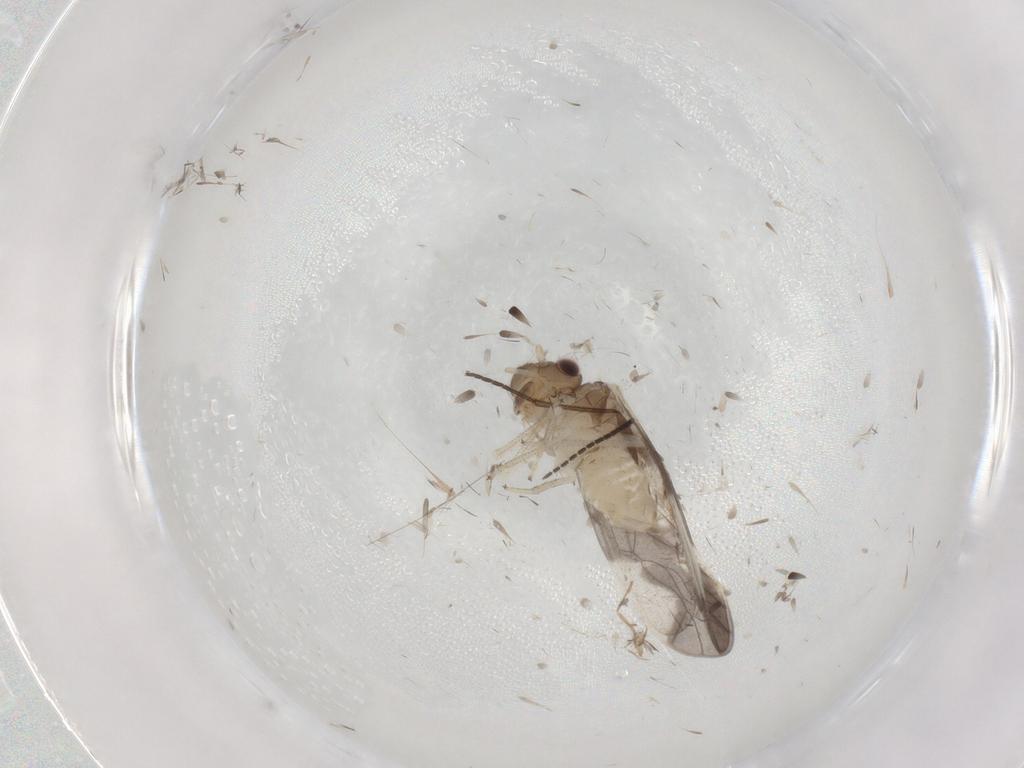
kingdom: Animalia
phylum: Arthropoda
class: Insecta
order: Psocodea
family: Caeciliusidae
